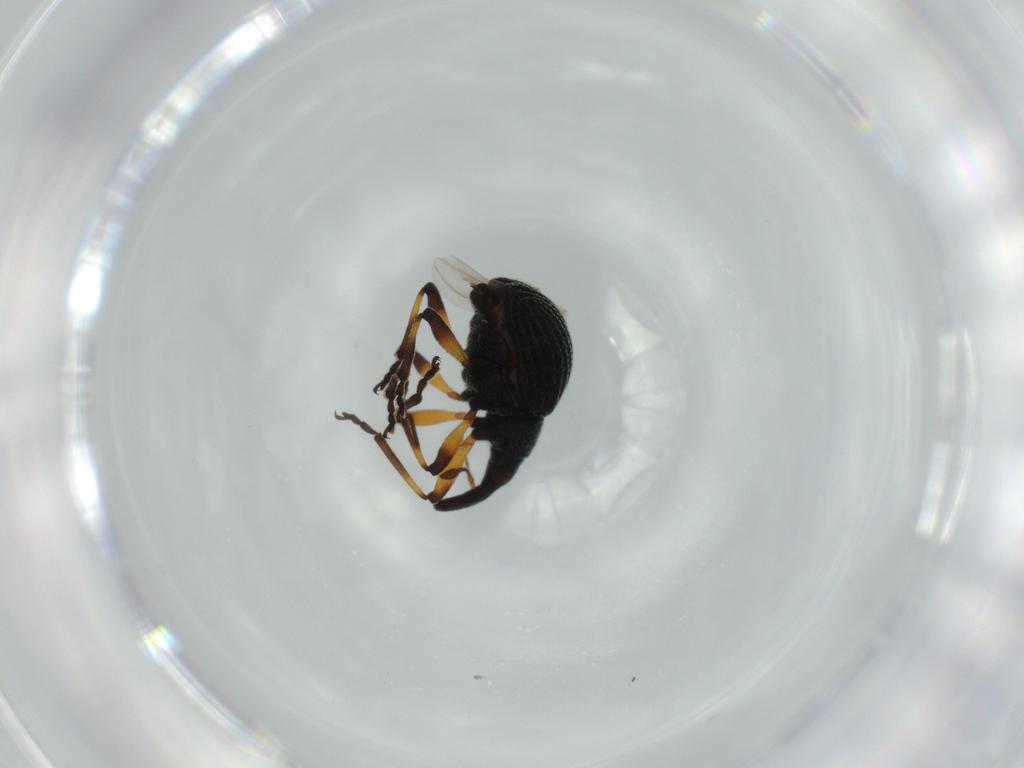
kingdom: Animalia
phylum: Arthropoda
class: Insecta
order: Coleoptera
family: Brentidae
